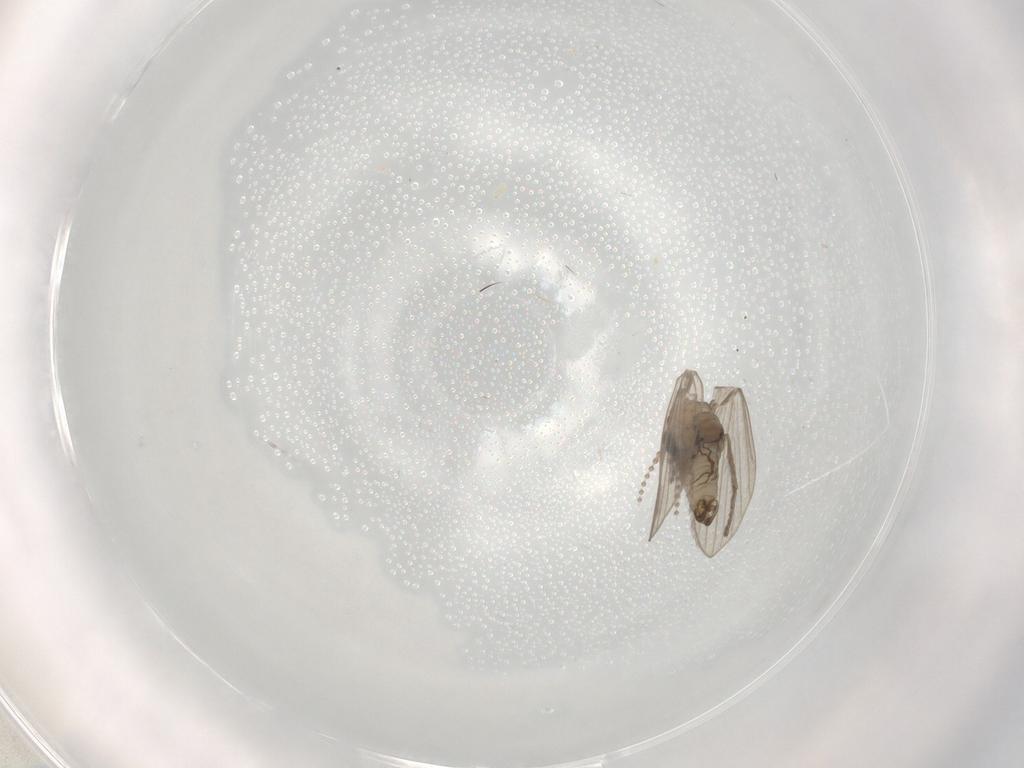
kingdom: Animalia
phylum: Arthropoda
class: Insecta
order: Diptera
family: Psychodidae
